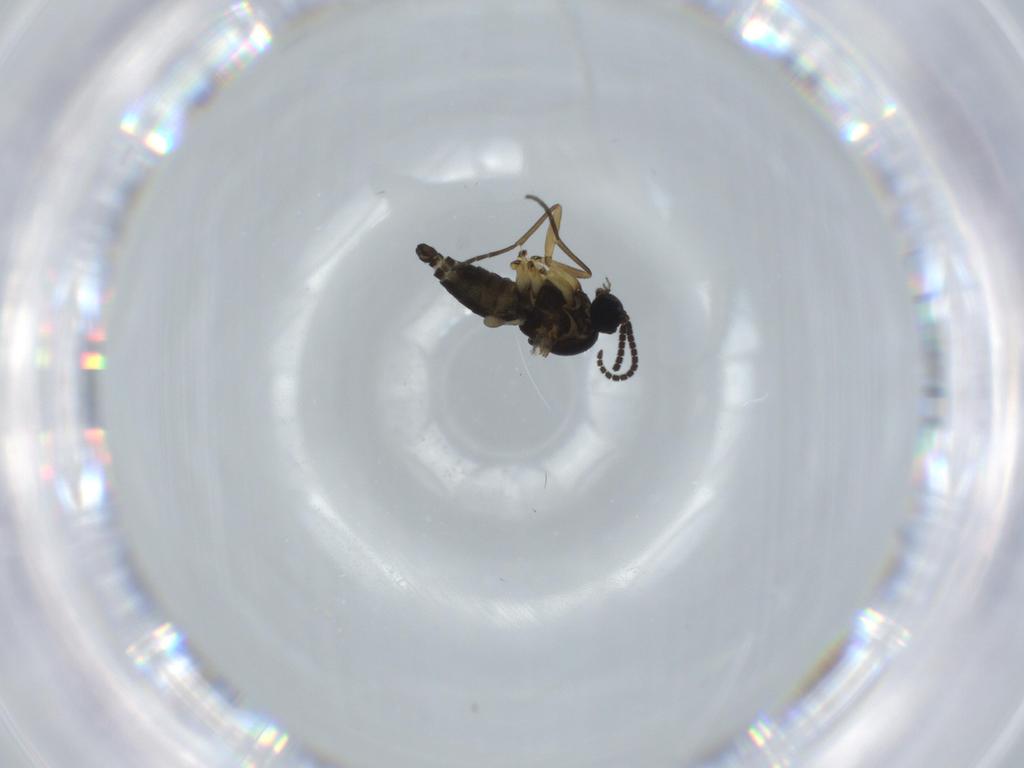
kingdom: Animalia
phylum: Arthropoda
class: Insecta
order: Diptera
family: Sciaridae
